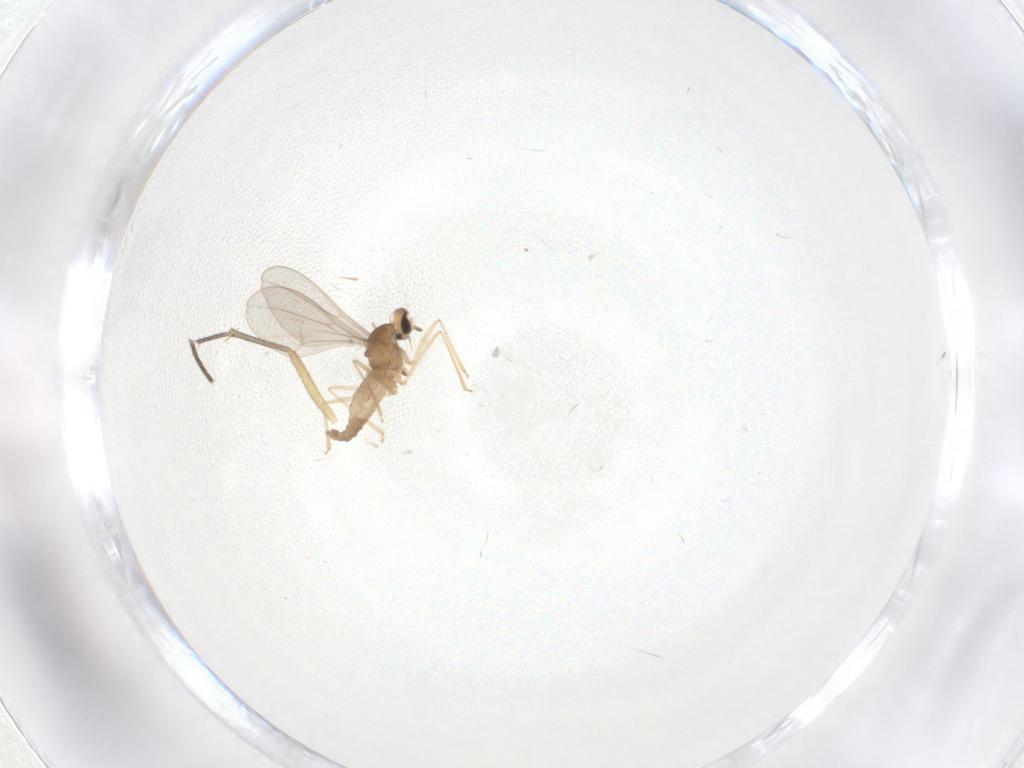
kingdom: Animalia
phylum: Arthropoda
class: Insecta
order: Diptera
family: Cecidomyiidae
